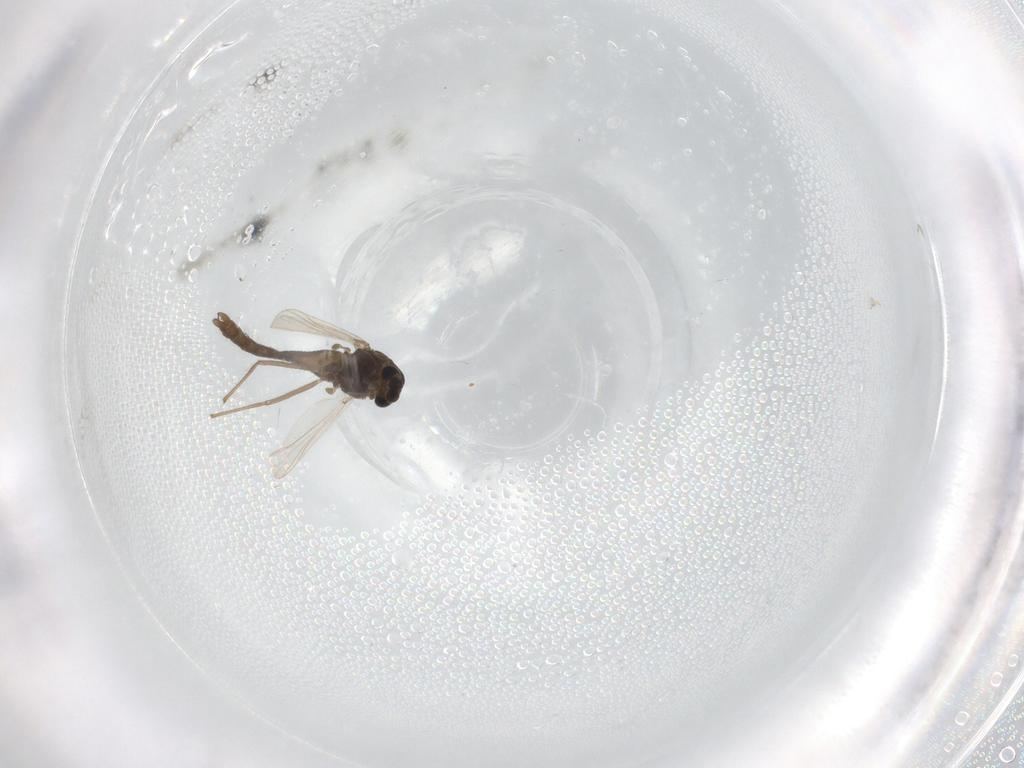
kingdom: Animalia
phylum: Arthropoda
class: Insecta
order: Diptera
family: Chironomidae
